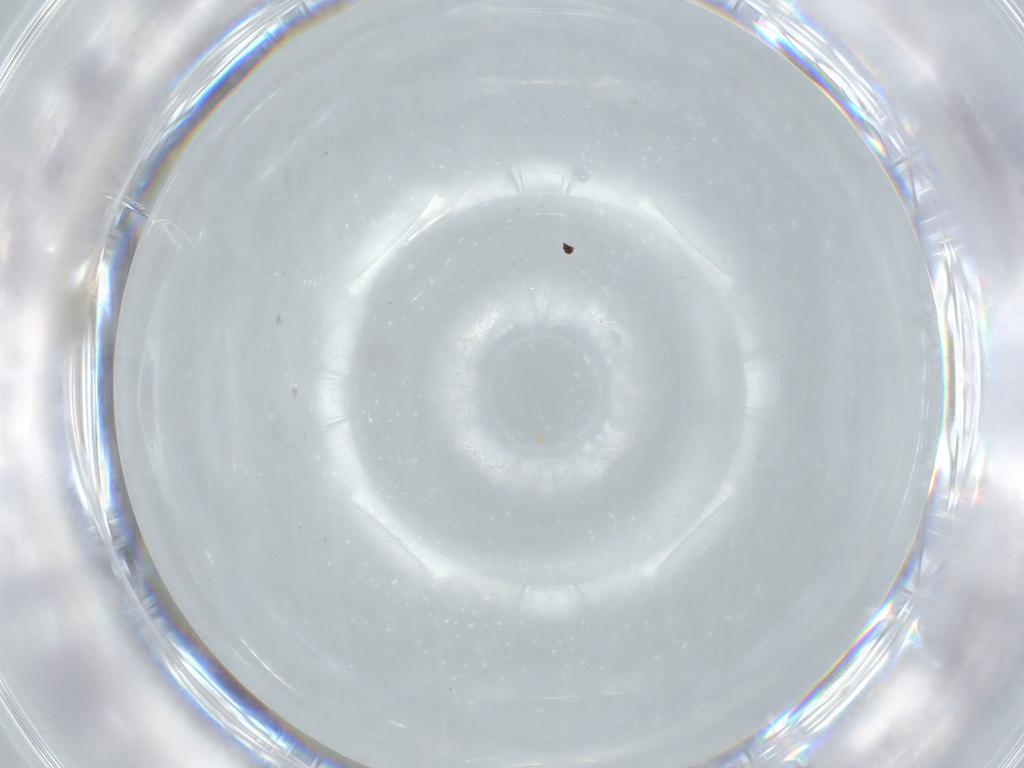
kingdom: Animalia
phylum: Arthropoda
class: Insecta
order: Diptera
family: Cecidomyiidae
